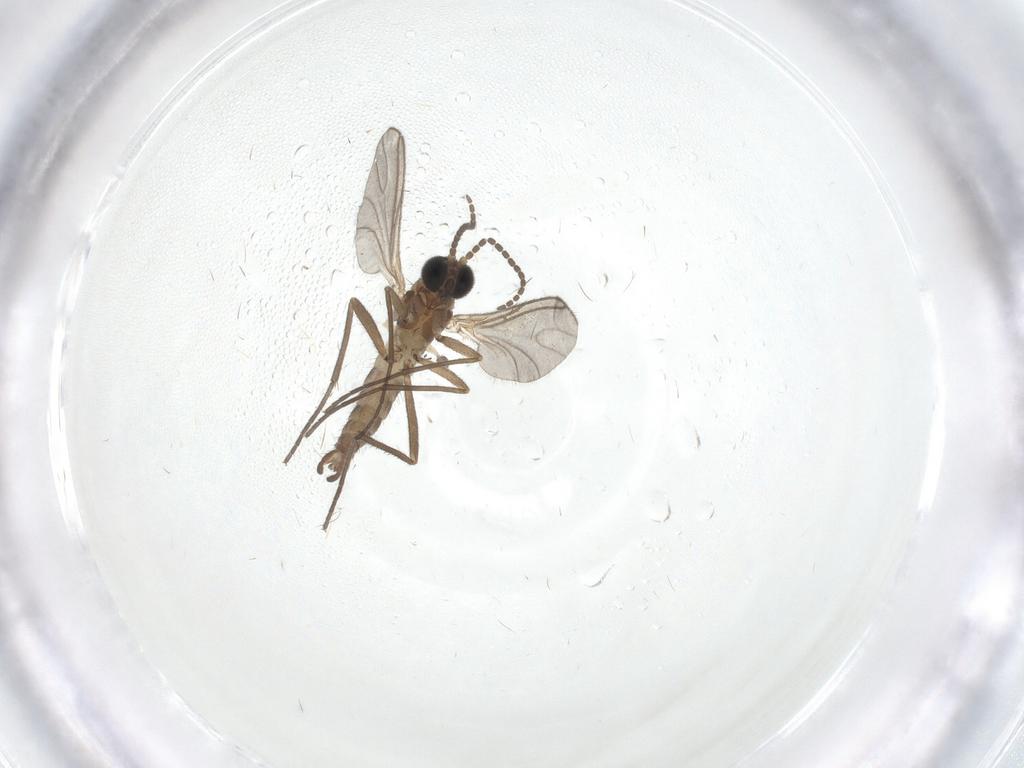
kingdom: Animalia
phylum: Arthropoda
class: Insecta
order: Diptera
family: Sciaridae
